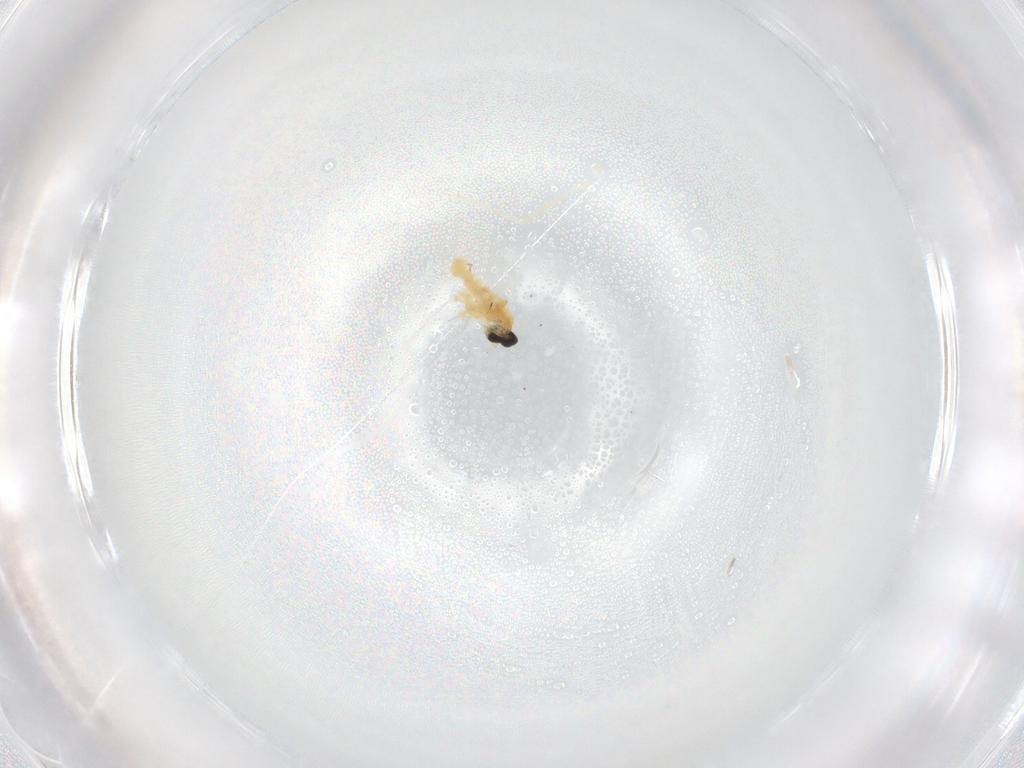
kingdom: Animalia
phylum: Arthropoda
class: Insecta
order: Diptera
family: Cecidomyiidae
